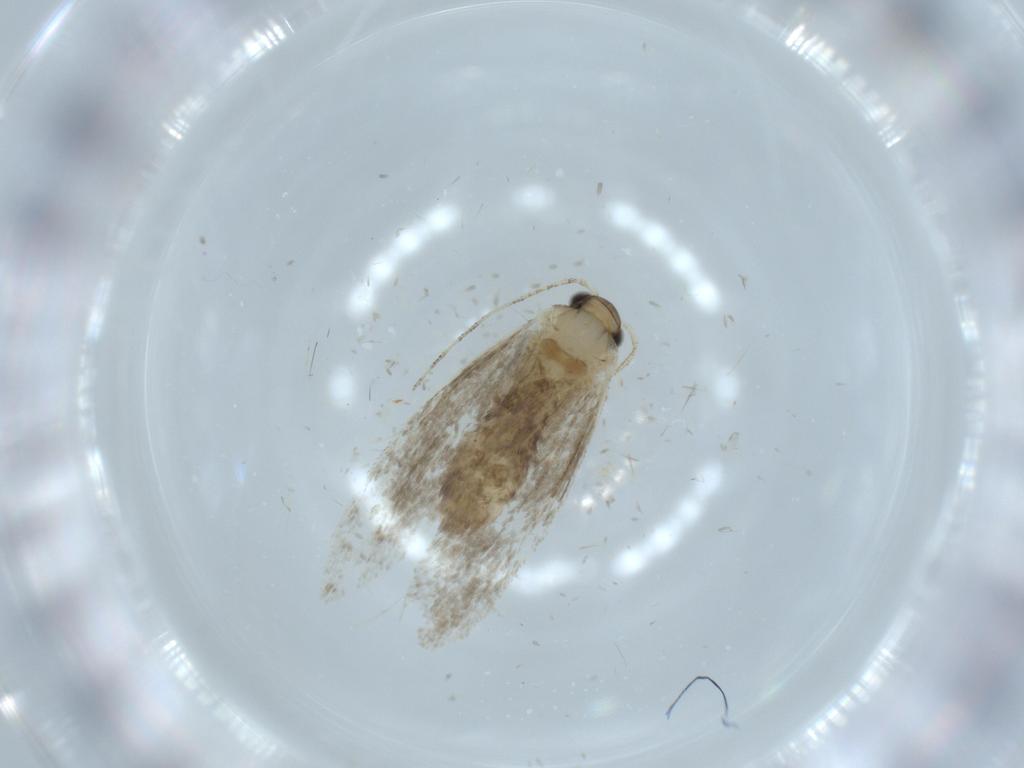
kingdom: Animalia
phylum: Arthropoda
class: Insecta
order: Lepidoptera
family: Tineidae
